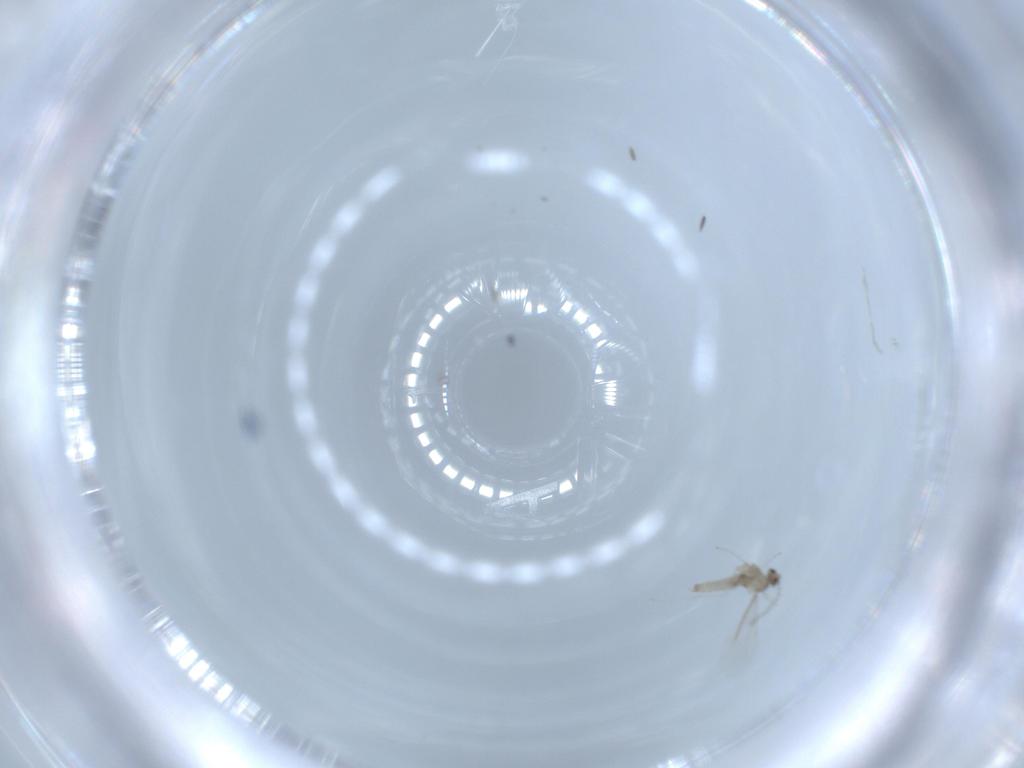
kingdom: Animalia
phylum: Arthropoda
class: Insecta
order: Diptera
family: Cecidomyiidae
